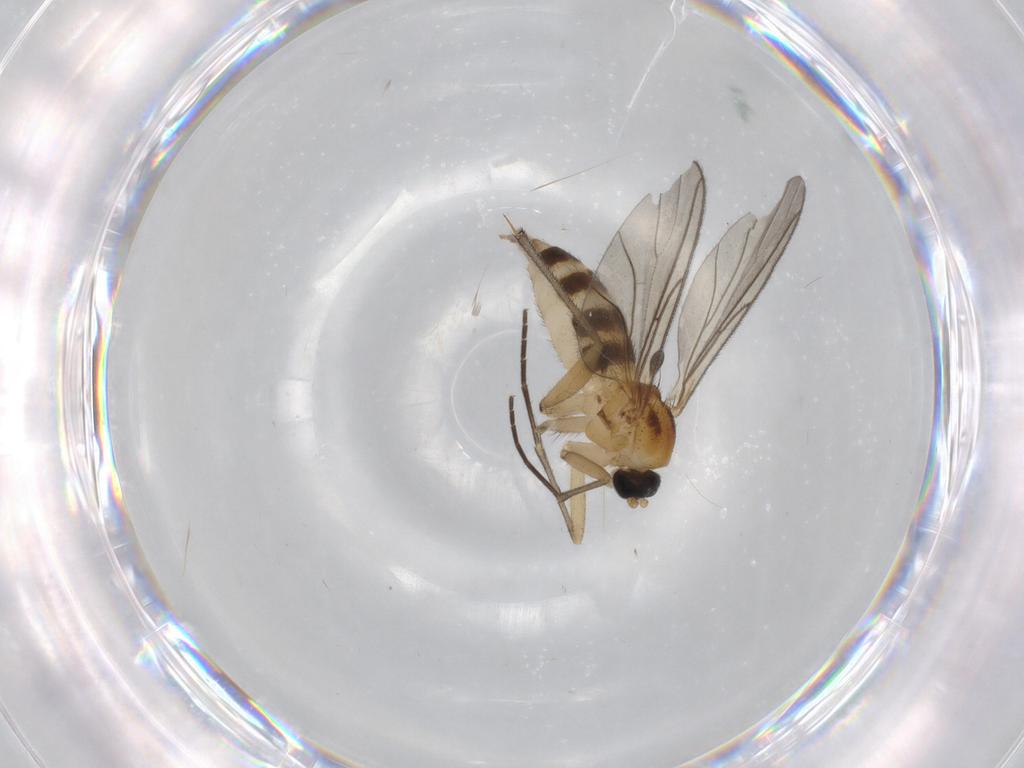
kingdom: Animalia
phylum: Arthropoda
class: Insecta
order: Diptera
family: Sciaridae
